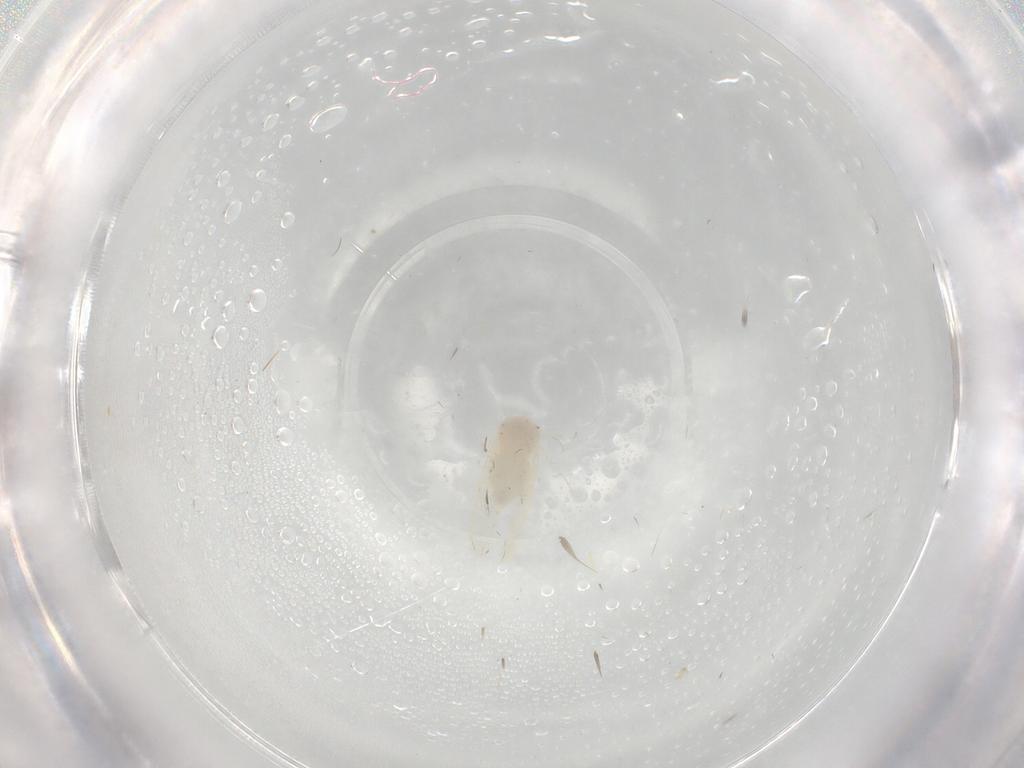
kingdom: Animalia
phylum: Arthropoda
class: Insecta
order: Hemiptera
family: Aleyrodidae
